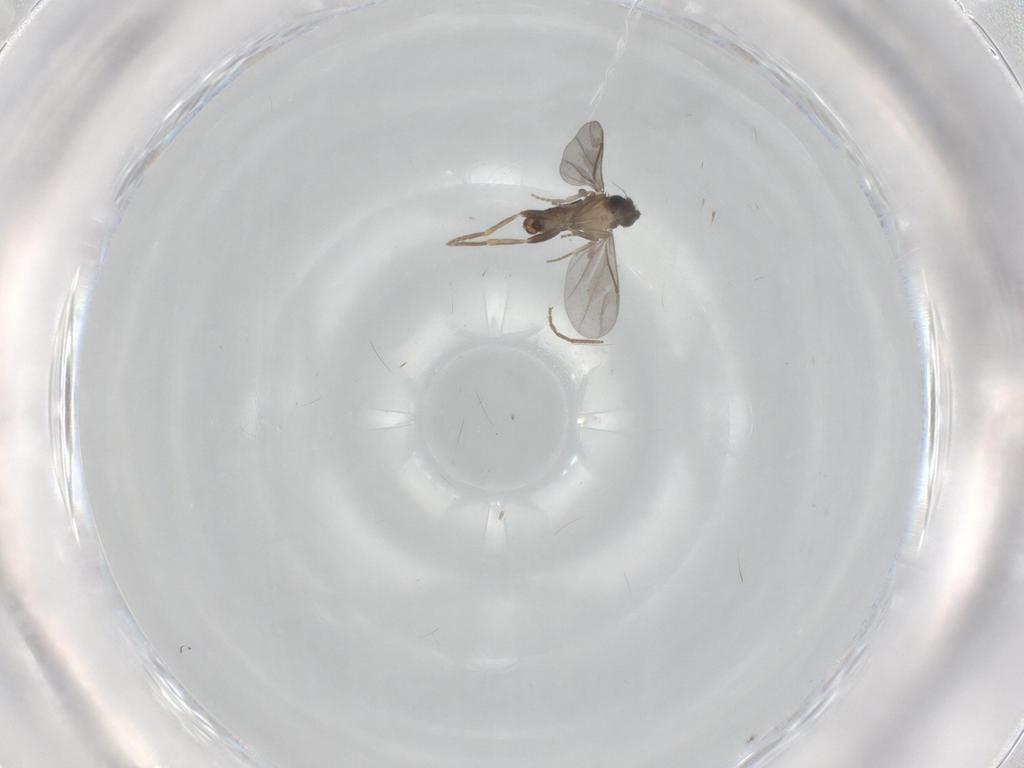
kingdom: Animalia
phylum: Arthropoda
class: Insecta
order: Diptera
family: Chironomidae
